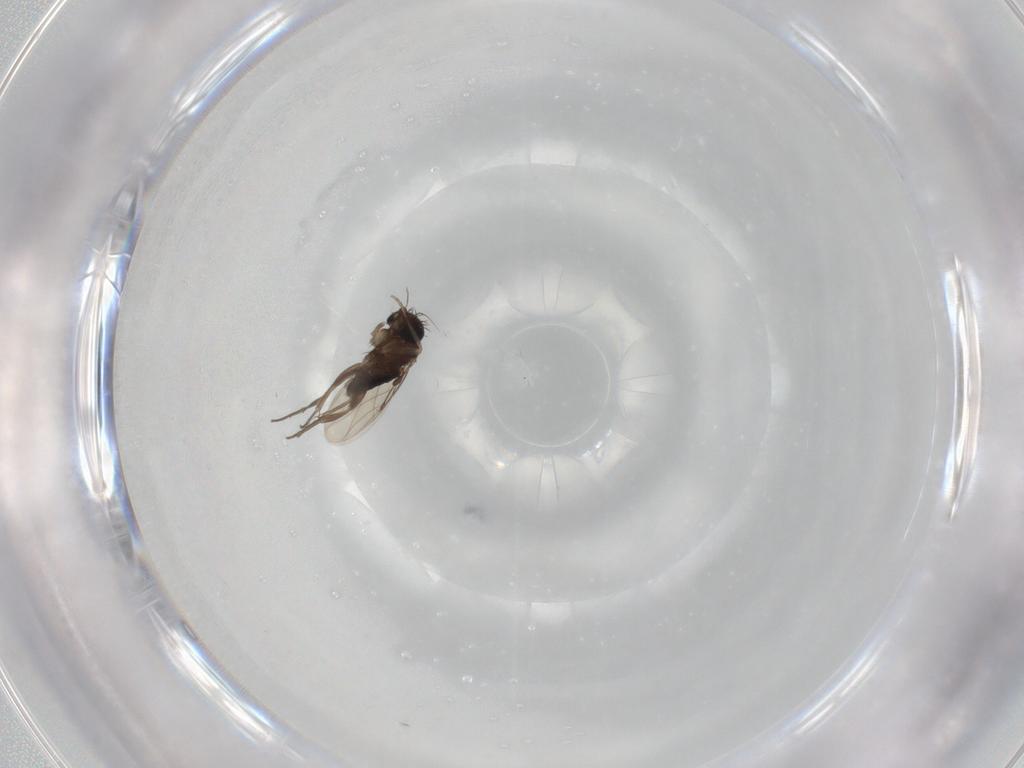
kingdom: Animalia
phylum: Arthropoda
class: Insecta
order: Diptera
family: Phoridae
